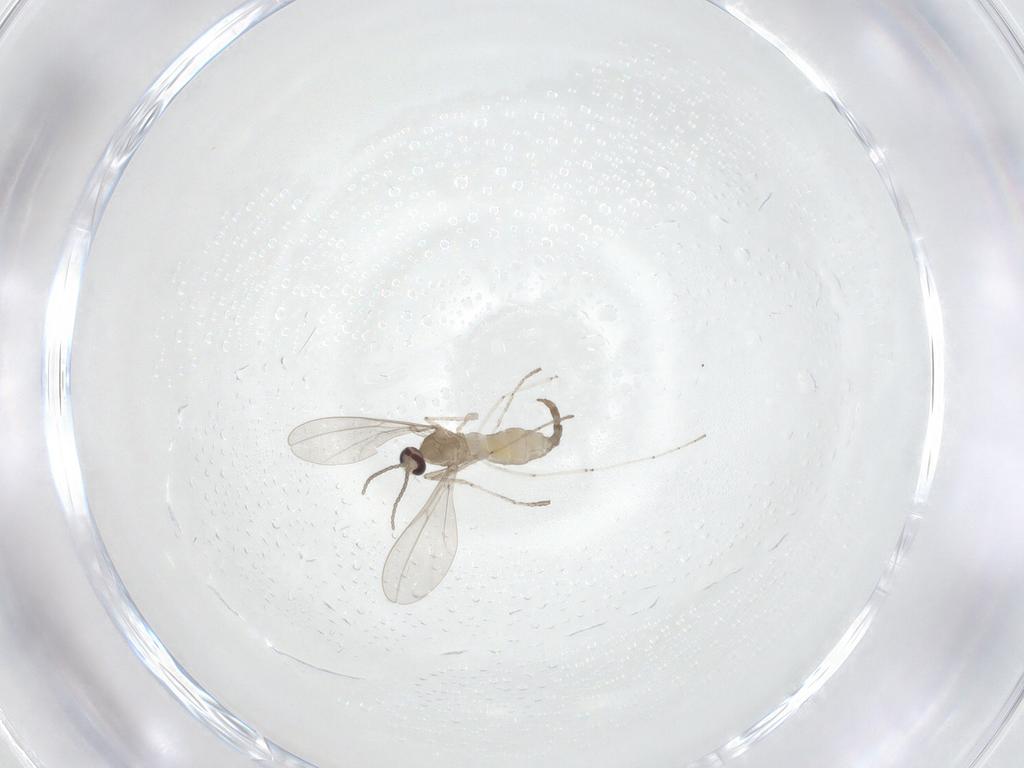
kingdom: Animalia
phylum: Arthropoda
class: Insecta
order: Diptera
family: Cecidomyiidae
